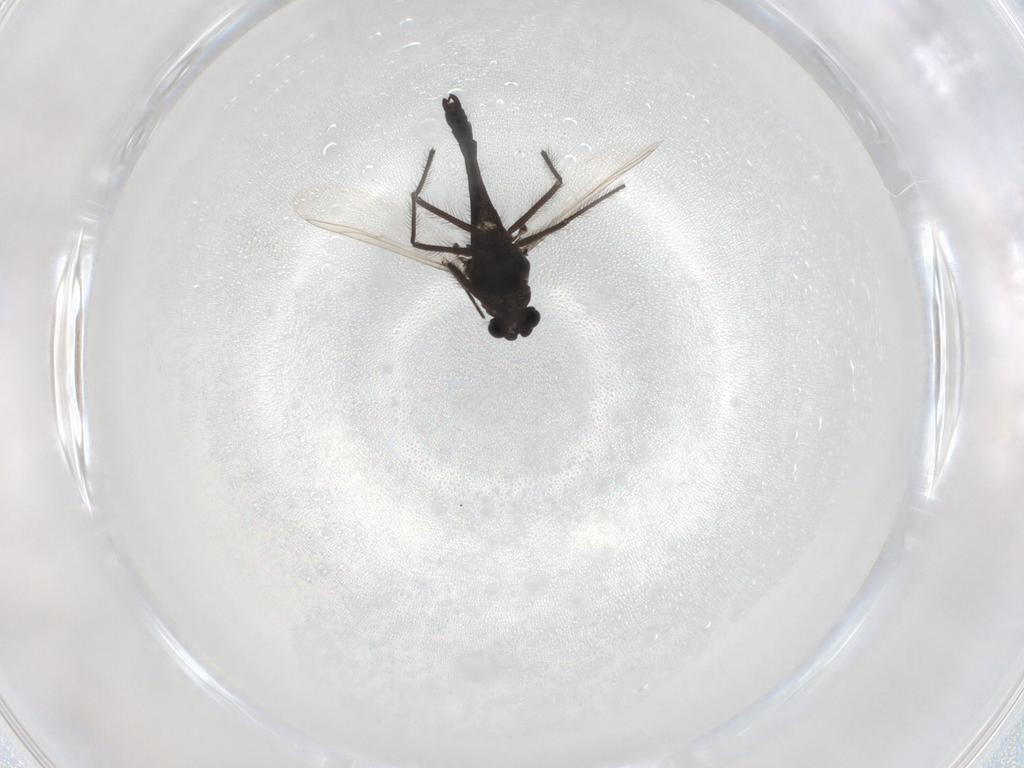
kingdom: Animalia
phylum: Arthropoda
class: Insecta
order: Diptera
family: Chironomidae
